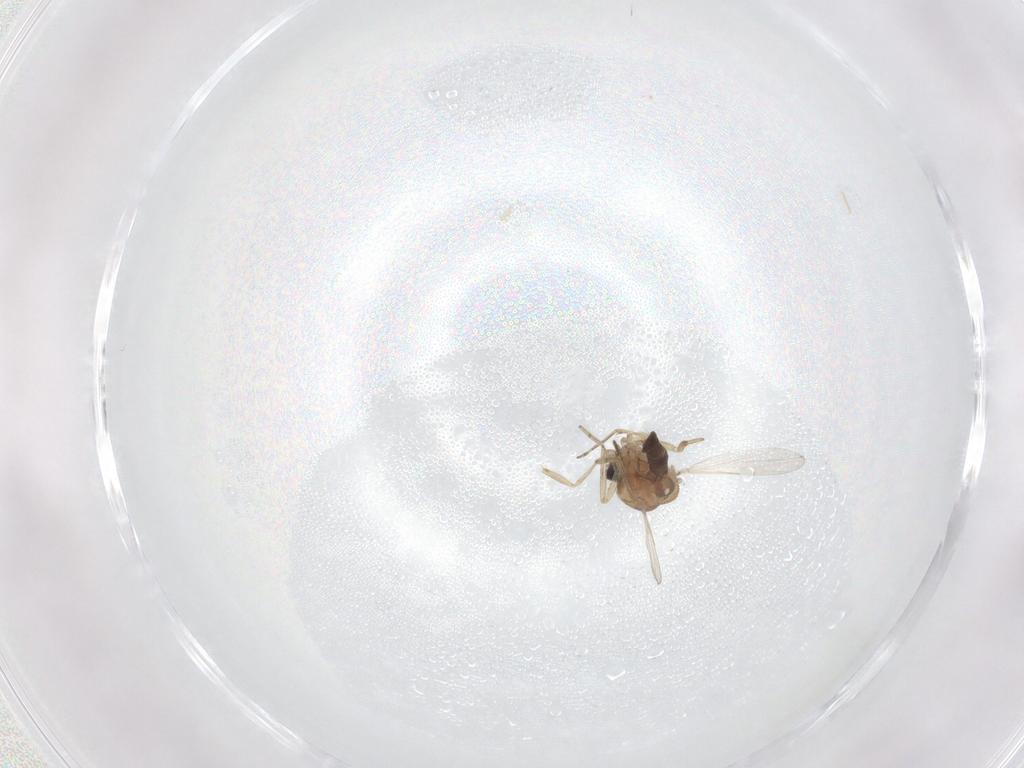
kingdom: Animalia
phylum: Arthropoda
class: Insecta
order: Diptera
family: Ceratopogonidae
